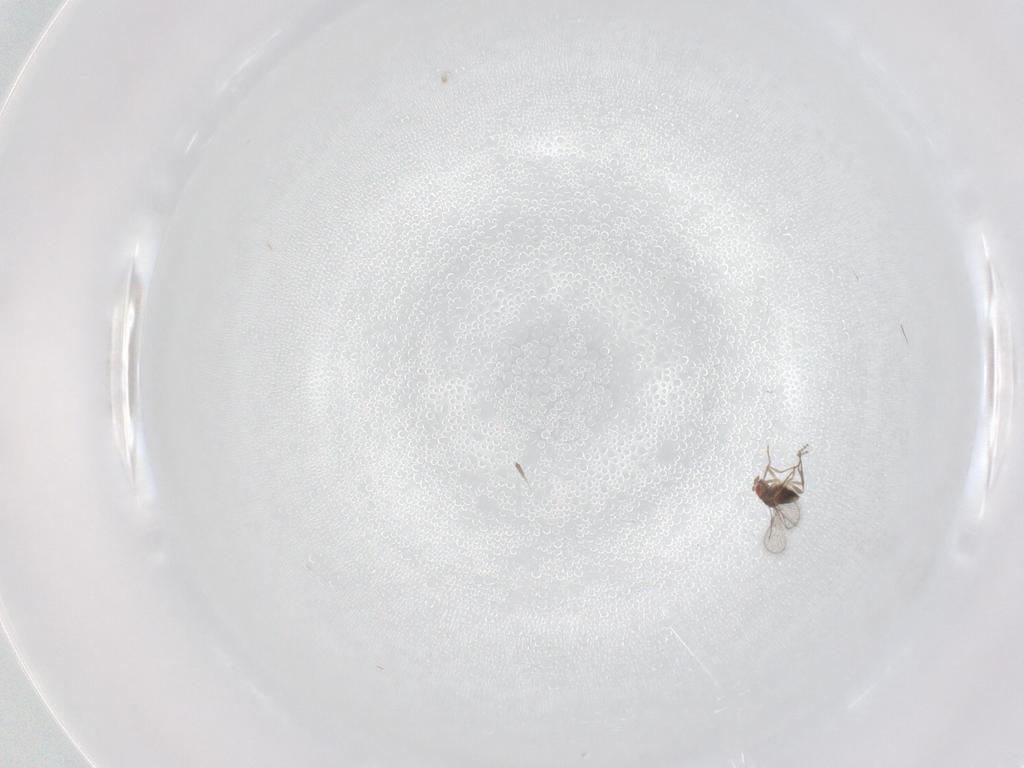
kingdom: Animalia
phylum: Arthropoda
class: Insecta
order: Hymenoptera
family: Trichogrammatidae
